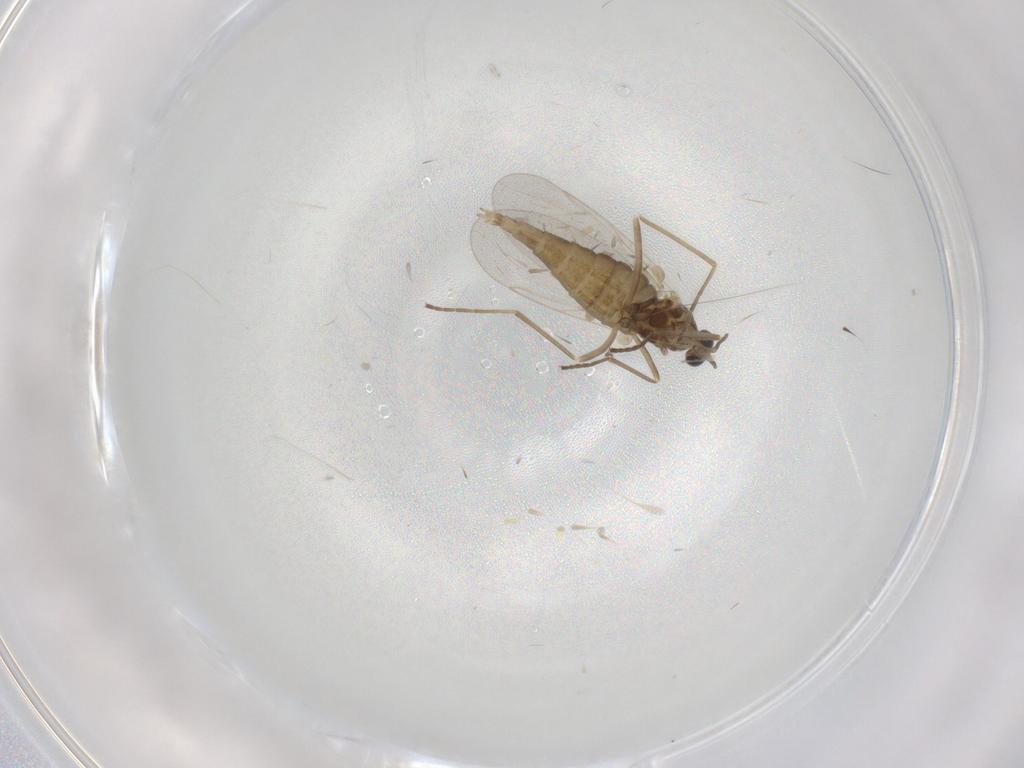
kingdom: Animalia
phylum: Arthropoda
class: Insecta
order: Diptera
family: Cecidomyiidae
